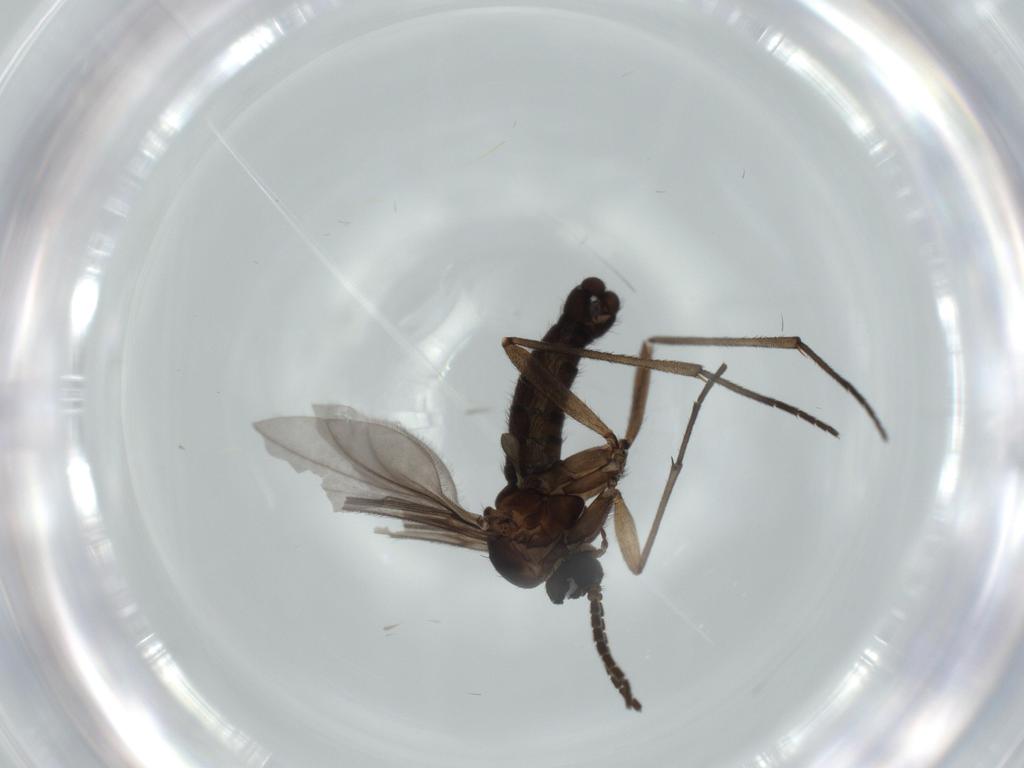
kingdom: Animalia
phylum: Arthropoda
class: Insecta
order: Diptera
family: Sciaridae
